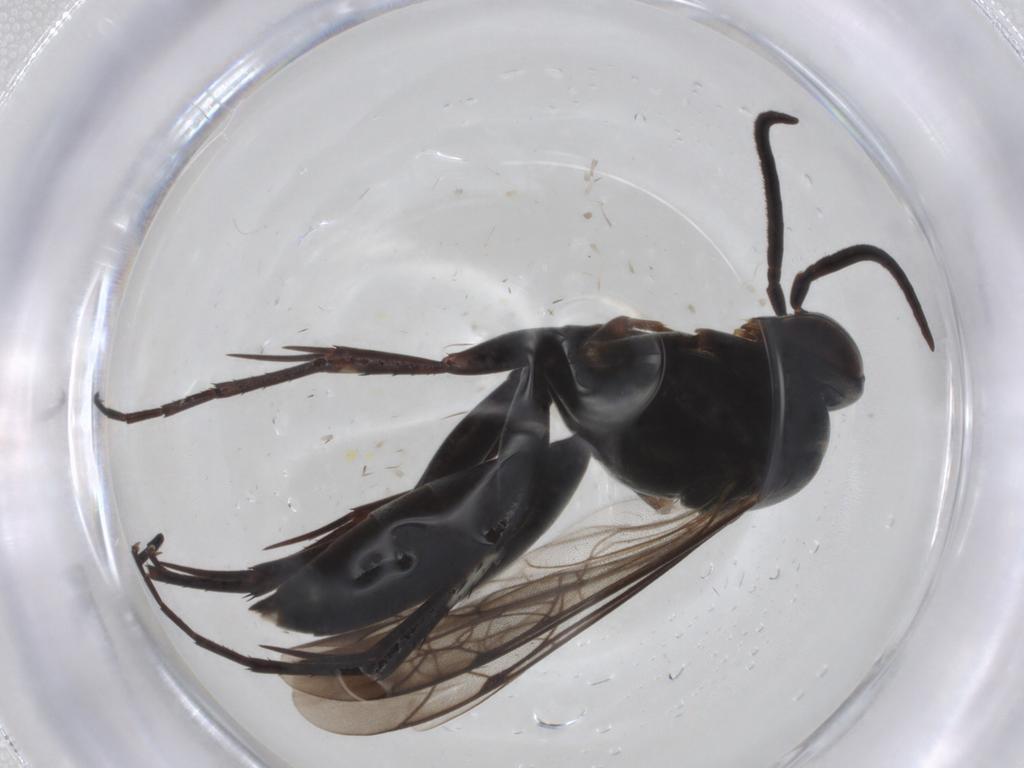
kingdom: Animalia
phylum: Arthropoda
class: Insecta
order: Hymenoptera
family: Pompilidae
